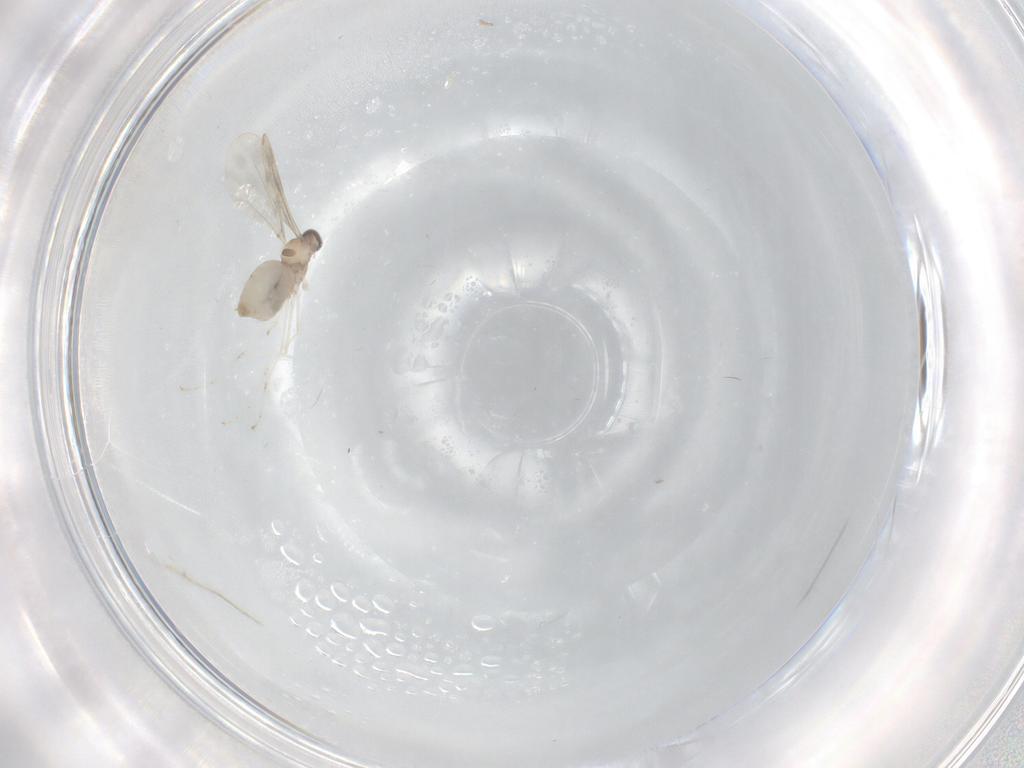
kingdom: Animalia
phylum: Arthropoda
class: Insecta
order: Diptera
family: Cecidomyiidae
